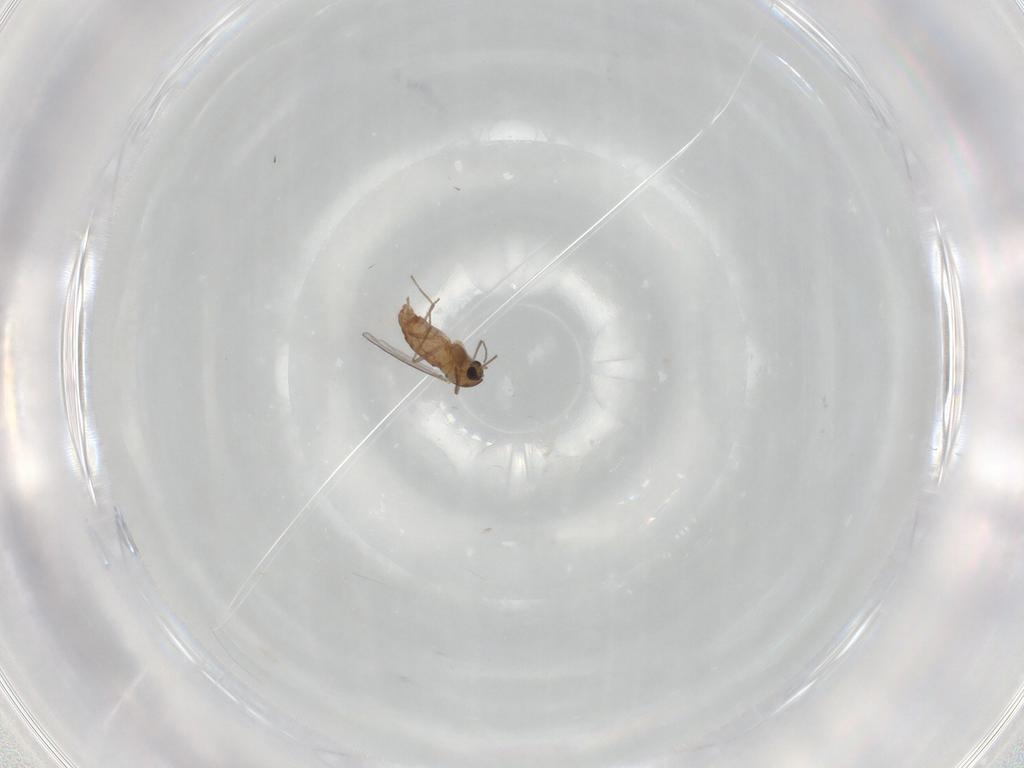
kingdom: Animalia
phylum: Arthropoda
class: Insecta
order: Diptera
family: Chironomidae
